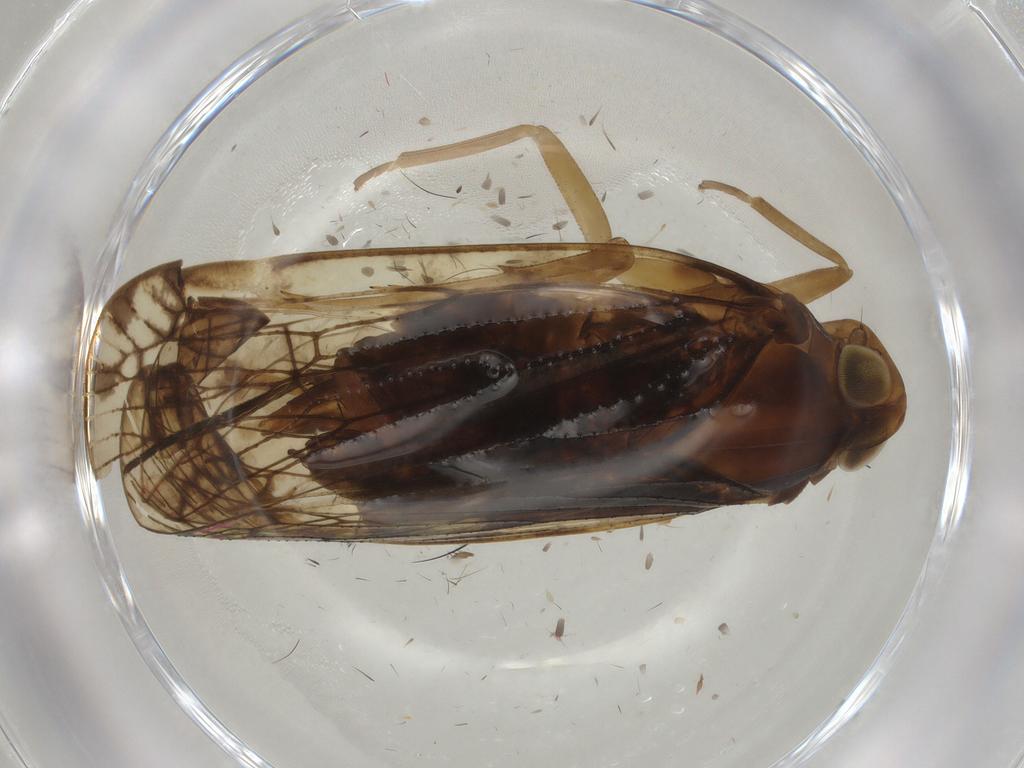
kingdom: Animalia
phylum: Arthropoda
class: Insecta
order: Hemiptera
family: Cixiidae
